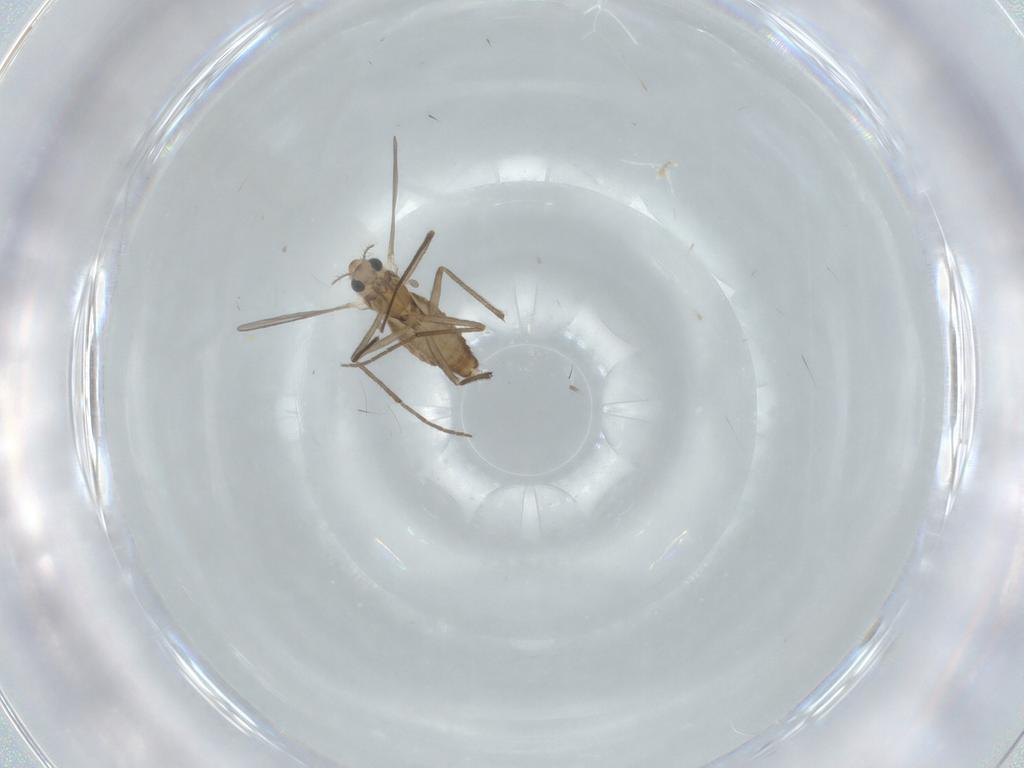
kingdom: Animalia
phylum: Arthropoda
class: Insecta
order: Diptera
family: Chironomidae
